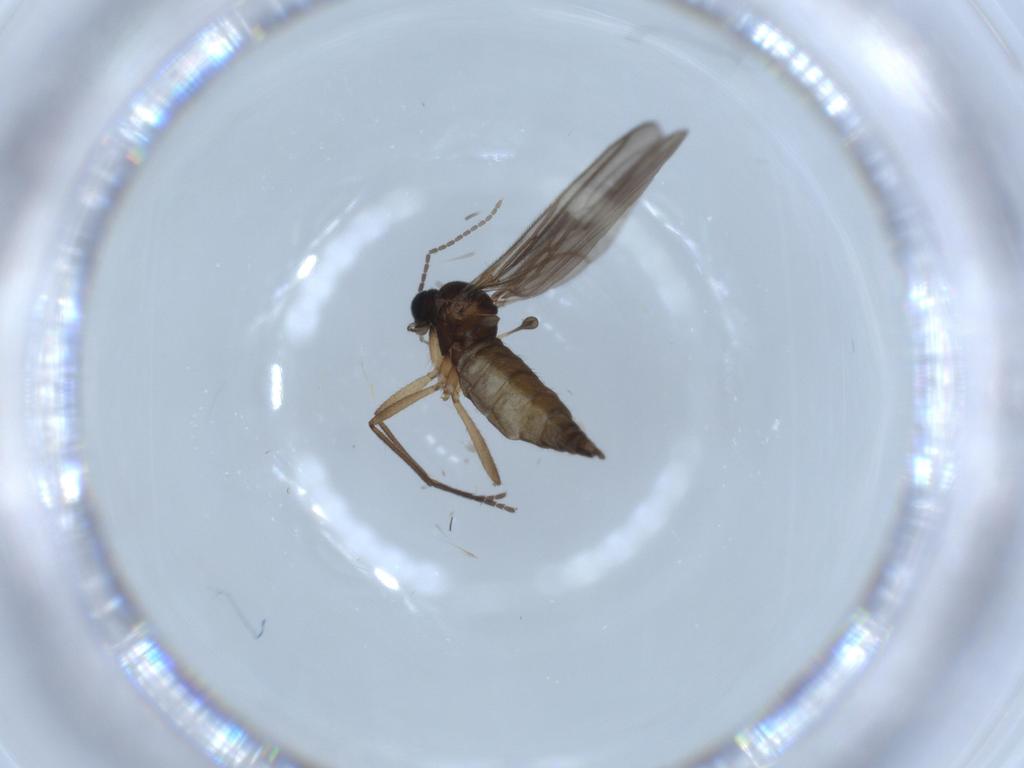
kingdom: Animalia
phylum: Arthropoda
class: Insecta
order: Diptera
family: Sciaridae
